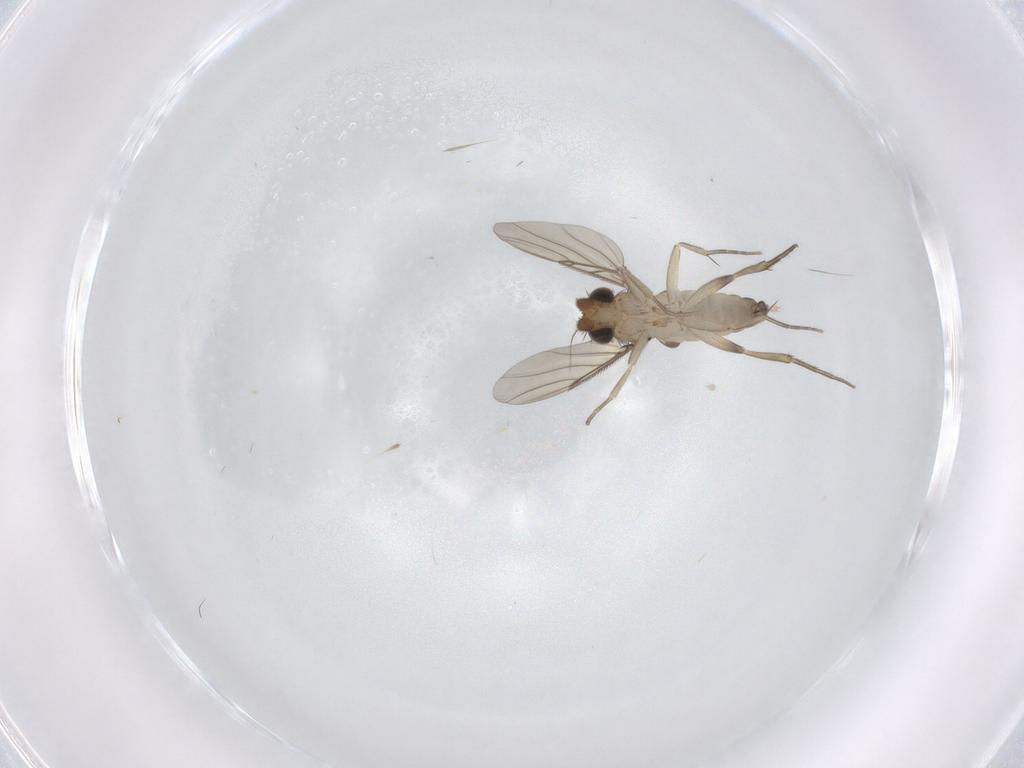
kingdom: Animalia
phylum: Arthropoda
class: Insecta
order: Diptera
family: Phoridae
